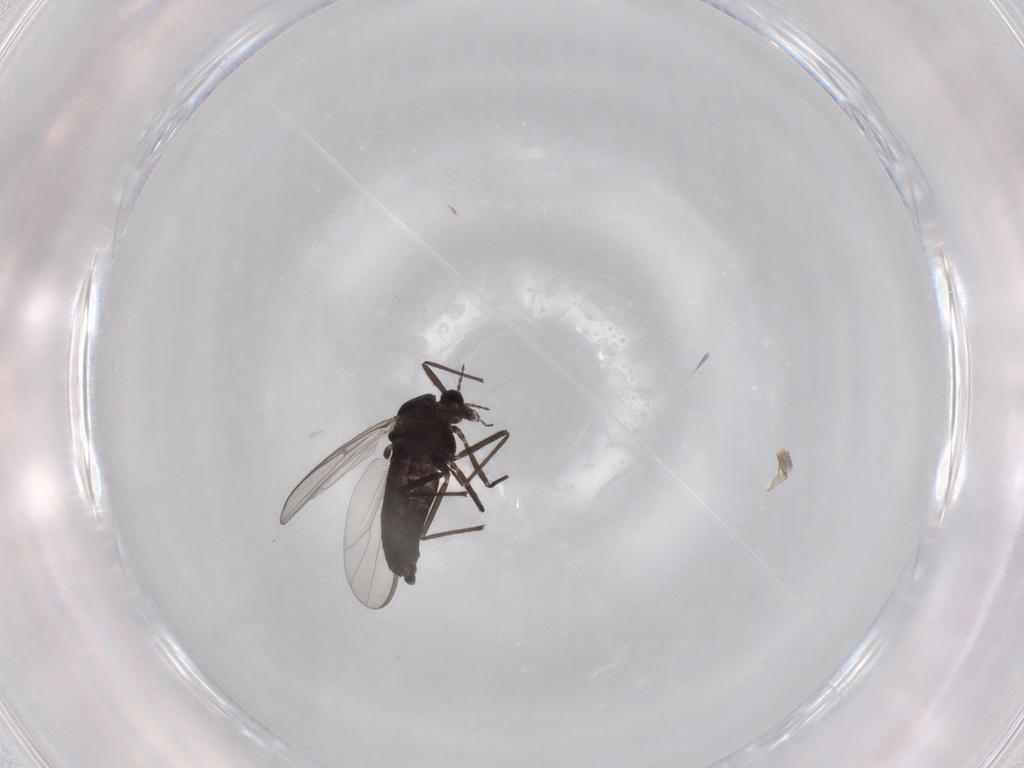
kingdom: Animalia
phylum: Arthropoda
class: Insecta
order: Diptera
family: Chironomidae
